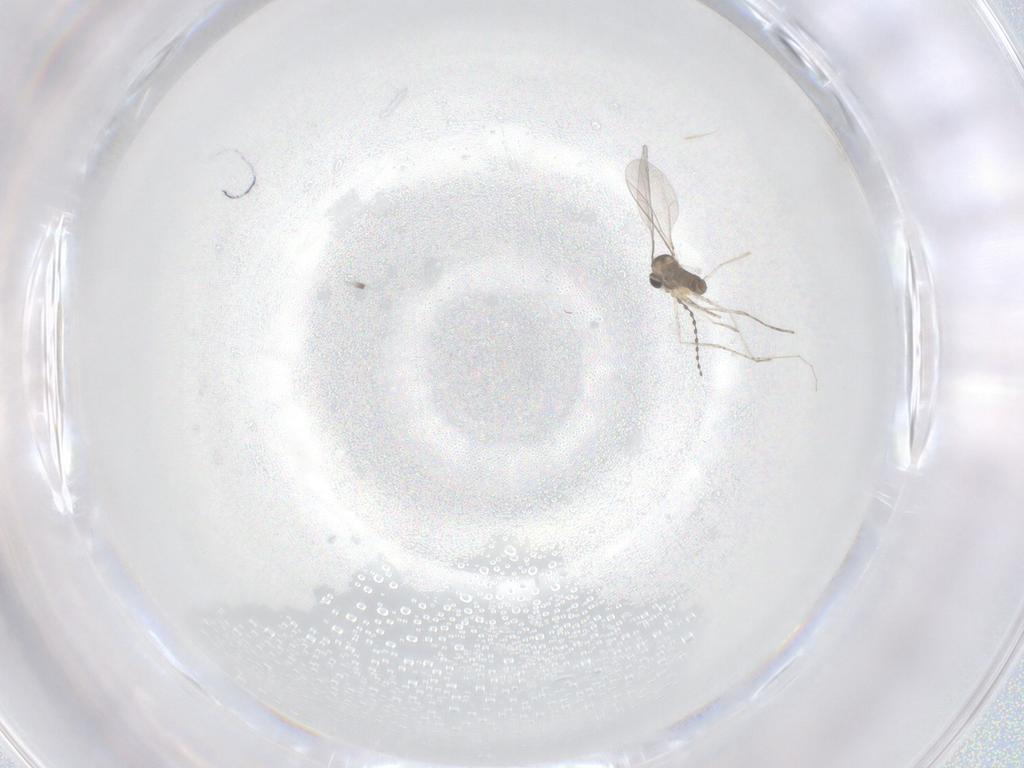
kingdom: Animalia
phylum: Arthropoda
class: Insecta
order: Diptera
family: Cecidomyiidae
